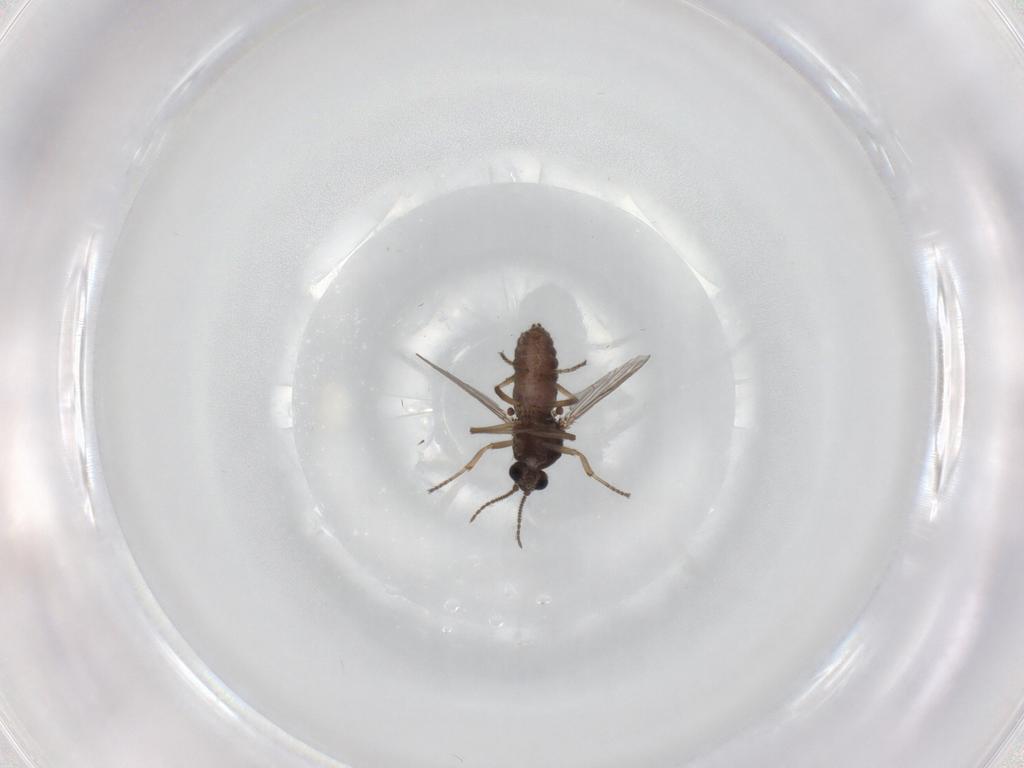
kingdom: Animalia
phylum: Arthropoda
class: Insecta
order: Diptera
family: Ceratopogonidae
